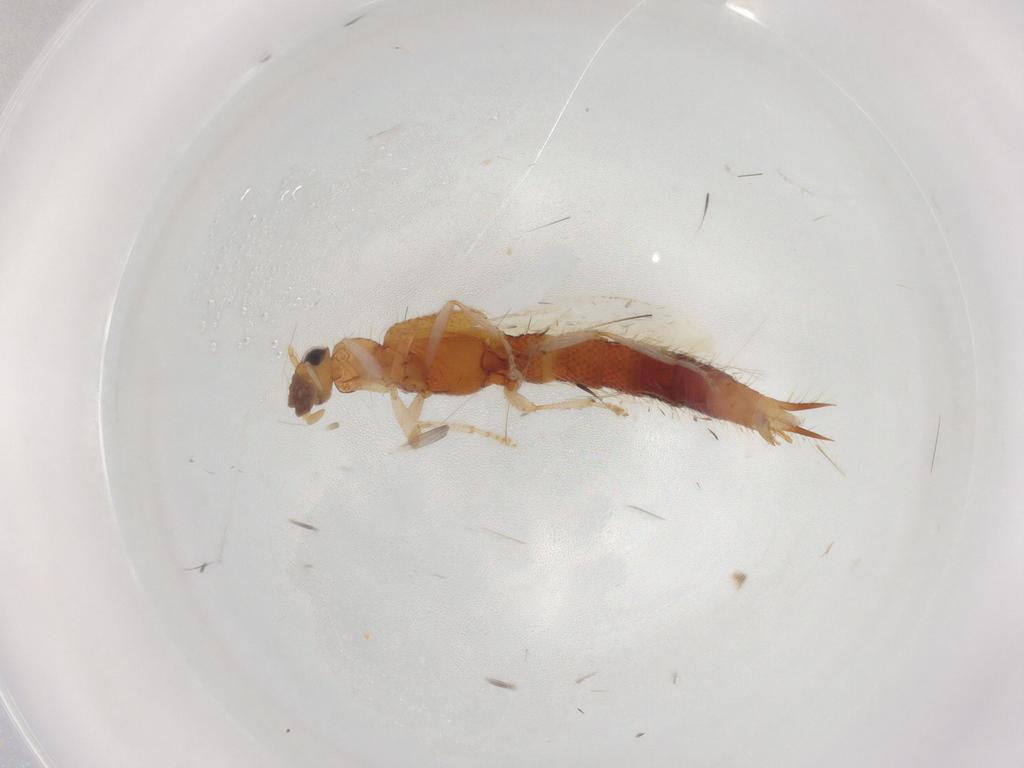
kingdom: Animalia
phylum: Arthropoda
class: Insecta
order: Coleoptera
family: Staphylinidae
